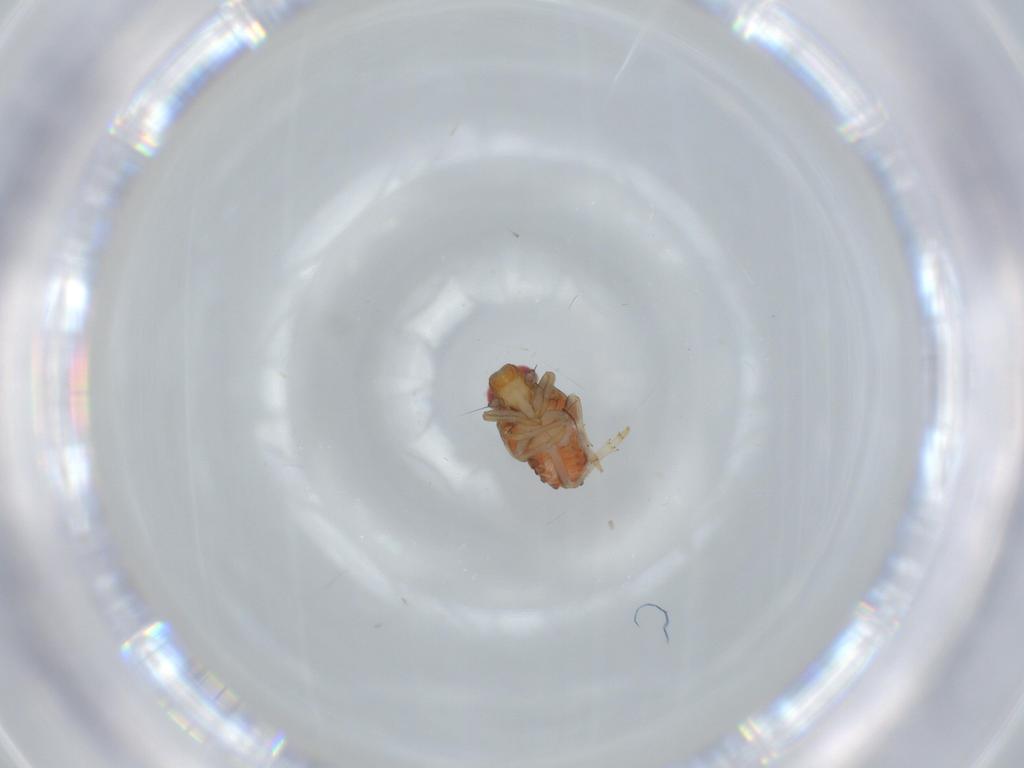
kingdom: Animalia
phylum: Arthropoda
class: Insecta
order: Hemiptera
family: Issidae
